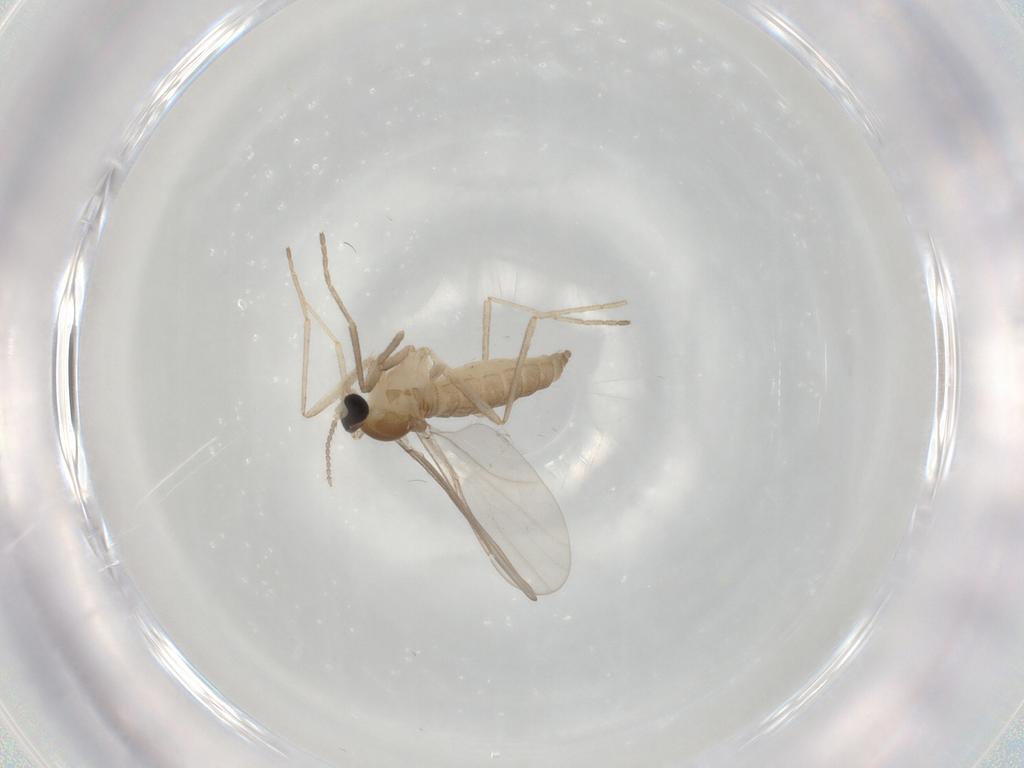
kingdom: Animalia
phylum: Arthropoda
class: Insecta
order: Diptera
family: Cecidomyiidae
